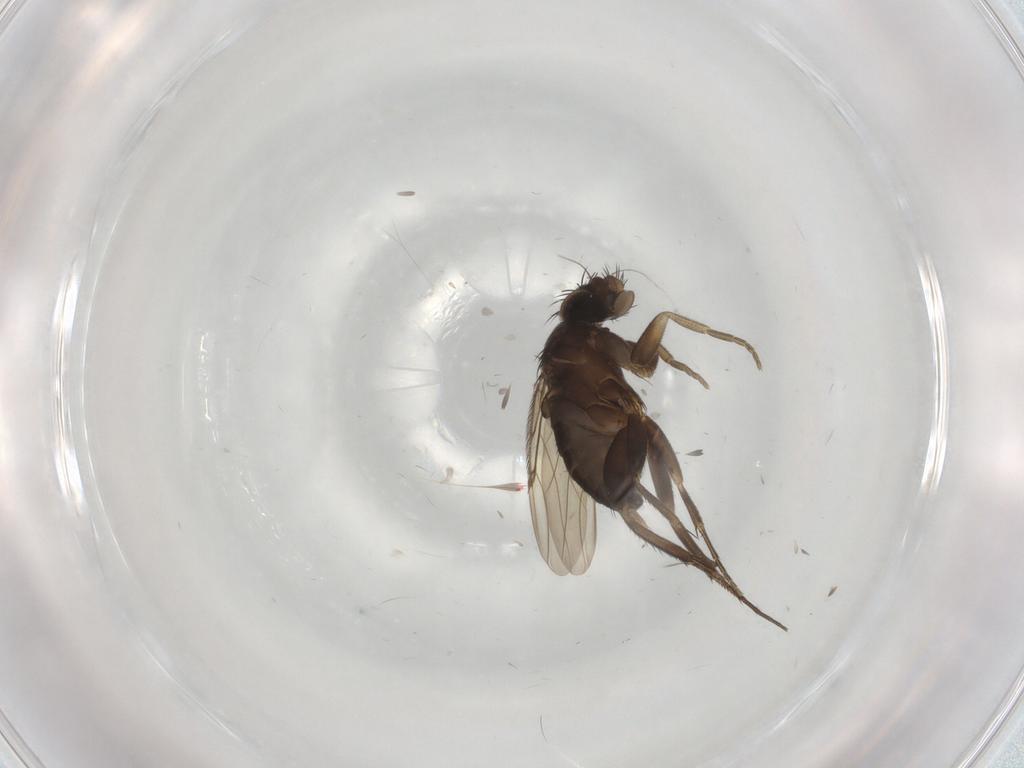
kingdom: Animalia
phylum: Arthropoda
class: Insecta
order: Diptera
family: Phoridae
